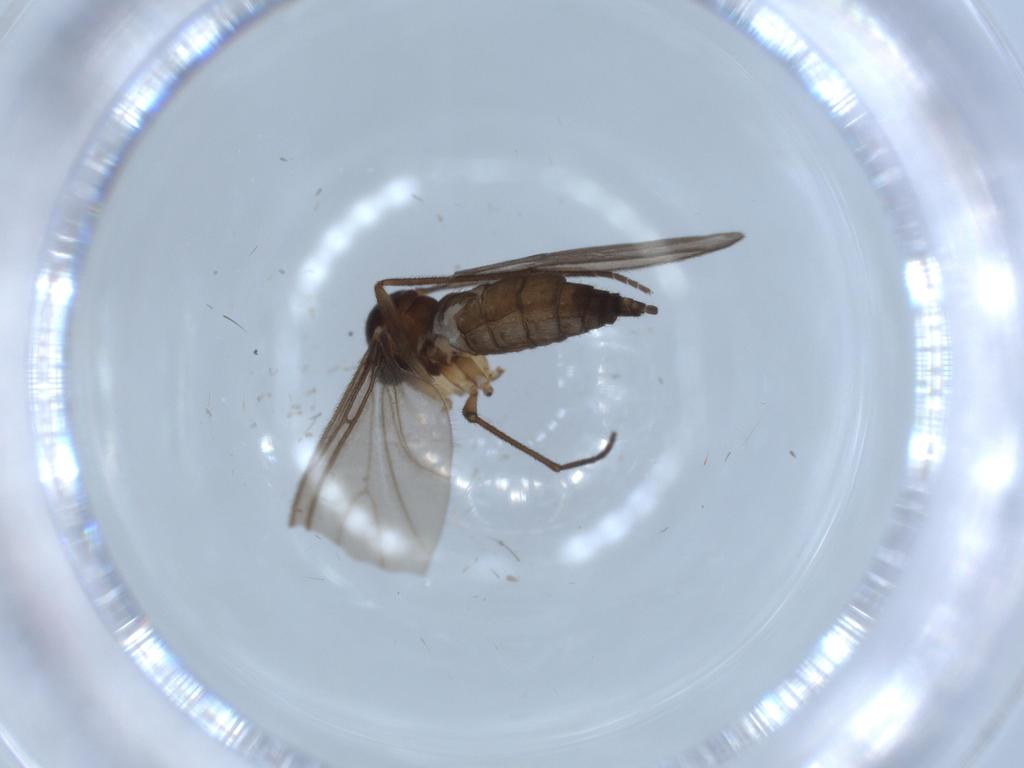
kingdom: Animalia
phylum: Arthropoda
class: Insecta
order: Diptera
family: Sciaridae
